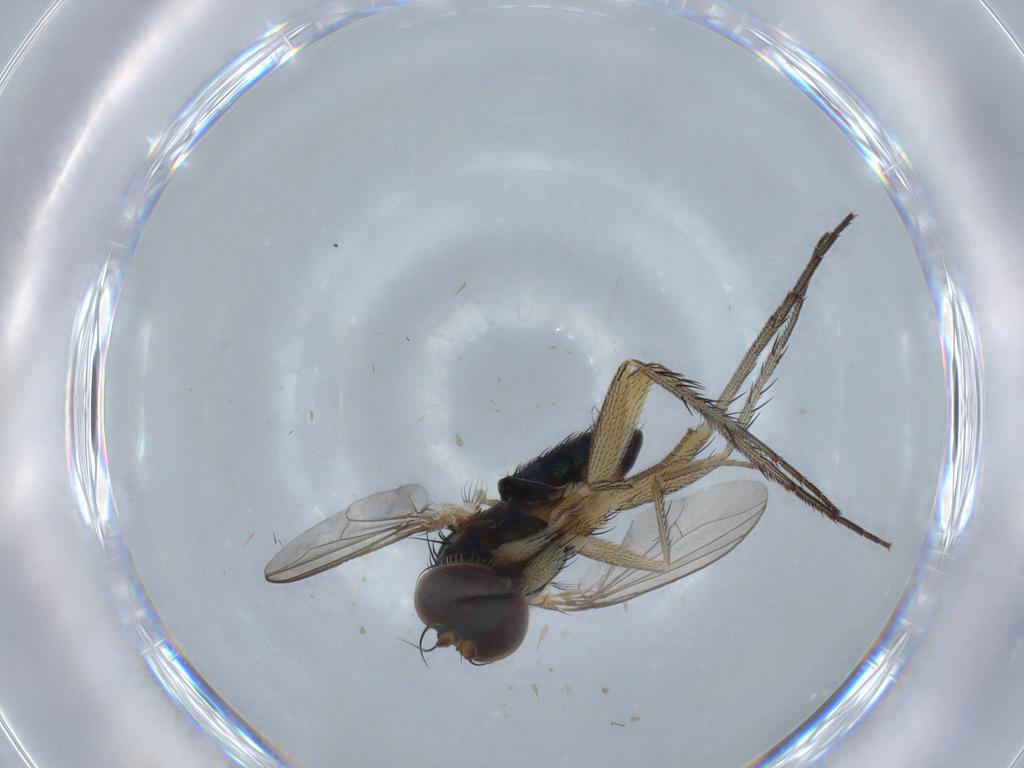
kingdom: Animalia
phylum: Arthropoda
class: Insecta
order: Diptera
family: Dolichopodidae
